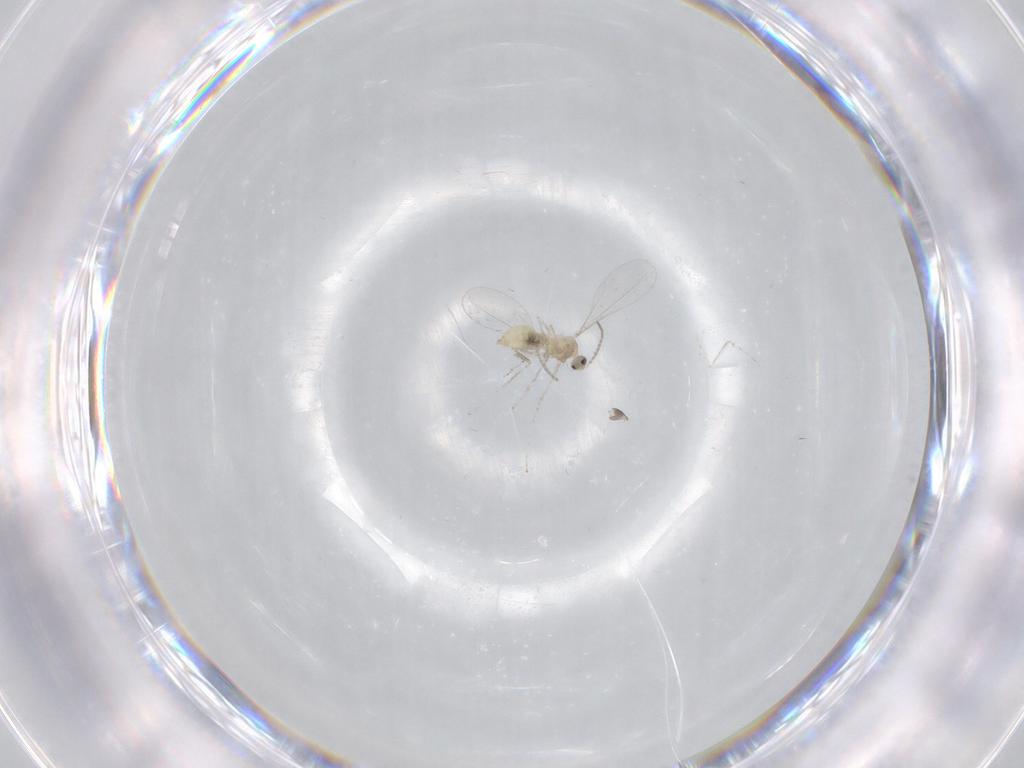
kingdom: Animalia
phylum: Arthropoda
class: Insecta
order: Diptera
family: Cecidomyiidae
